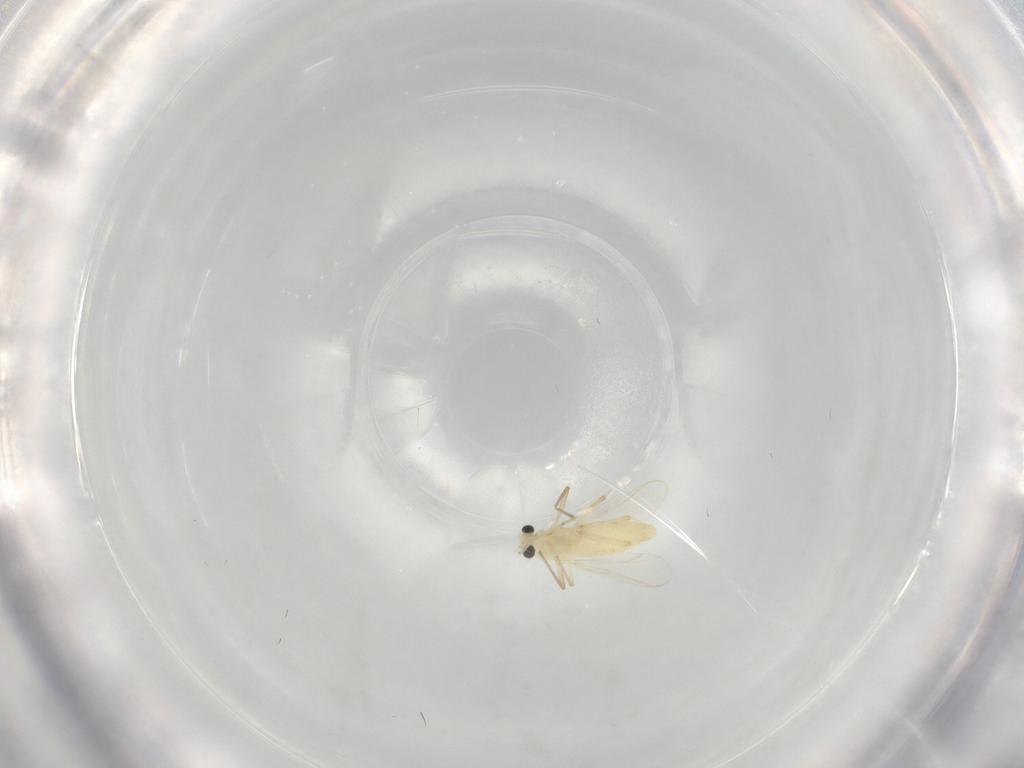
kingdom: Animalia
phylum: Arthropoda
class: Insecta
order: Diptera
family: Chironomidae
